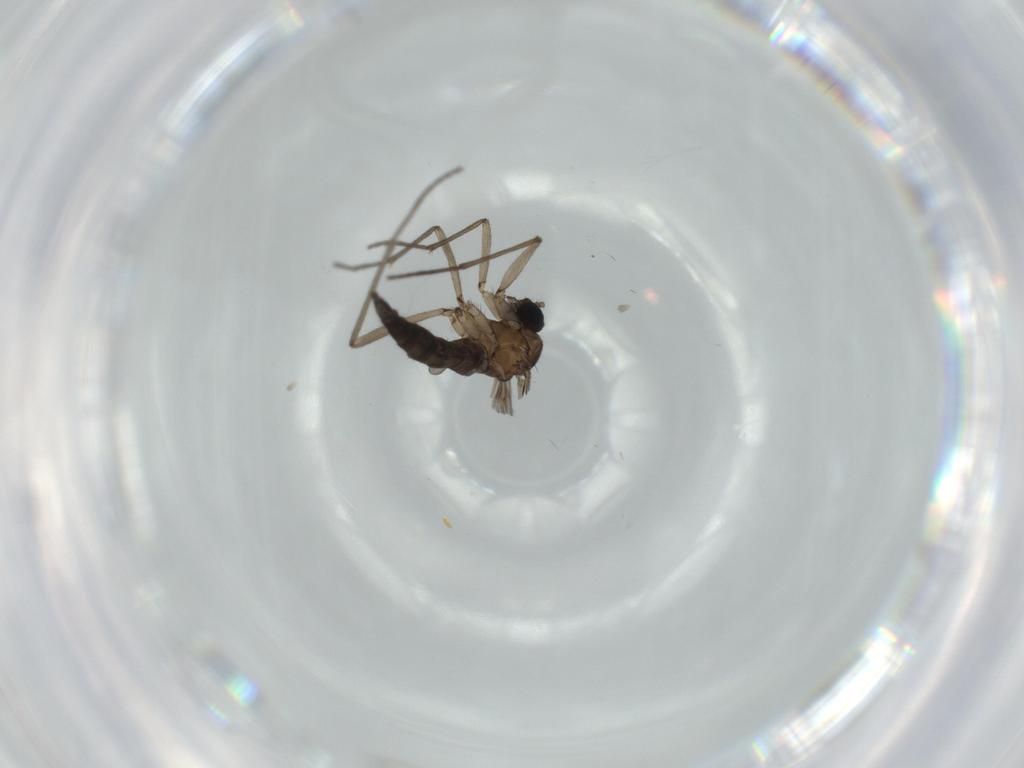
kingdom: Animalia
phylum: Arthropoda
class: Insecta
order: Diptera
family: Sciaridae
